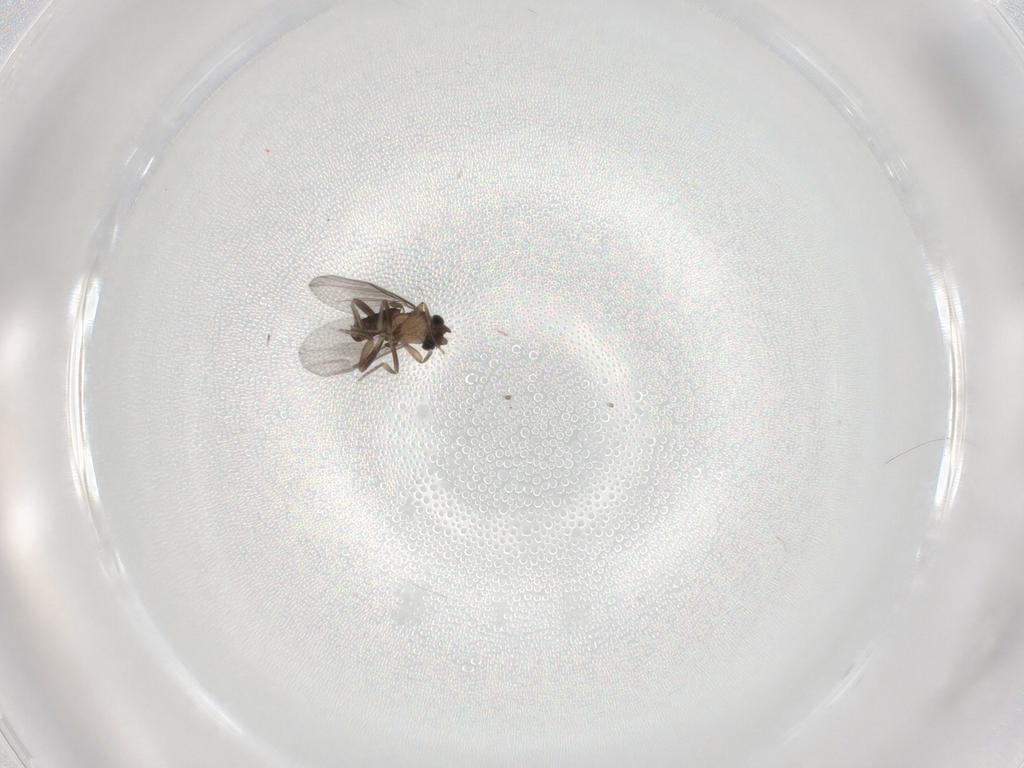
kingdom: Animalia
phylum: Arthropoda
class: Insecta
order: Diptera
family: Chironomidae
